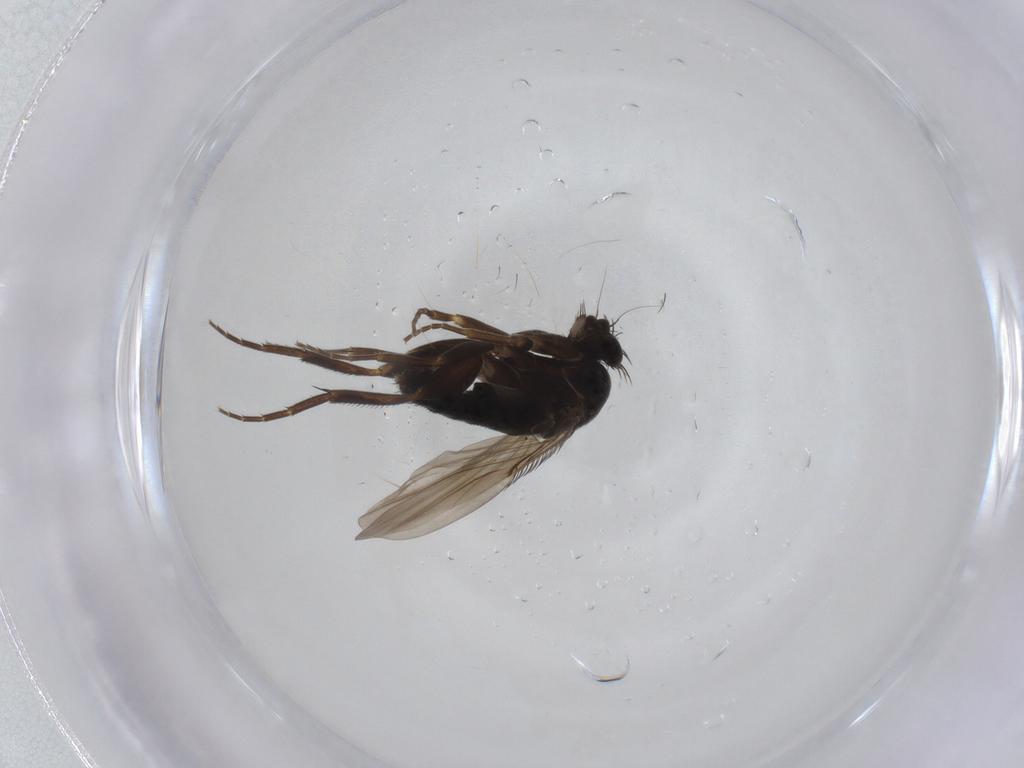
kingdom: Animalia
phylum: Arthropoda
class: Insecta
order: Diptera
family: Phoridae
